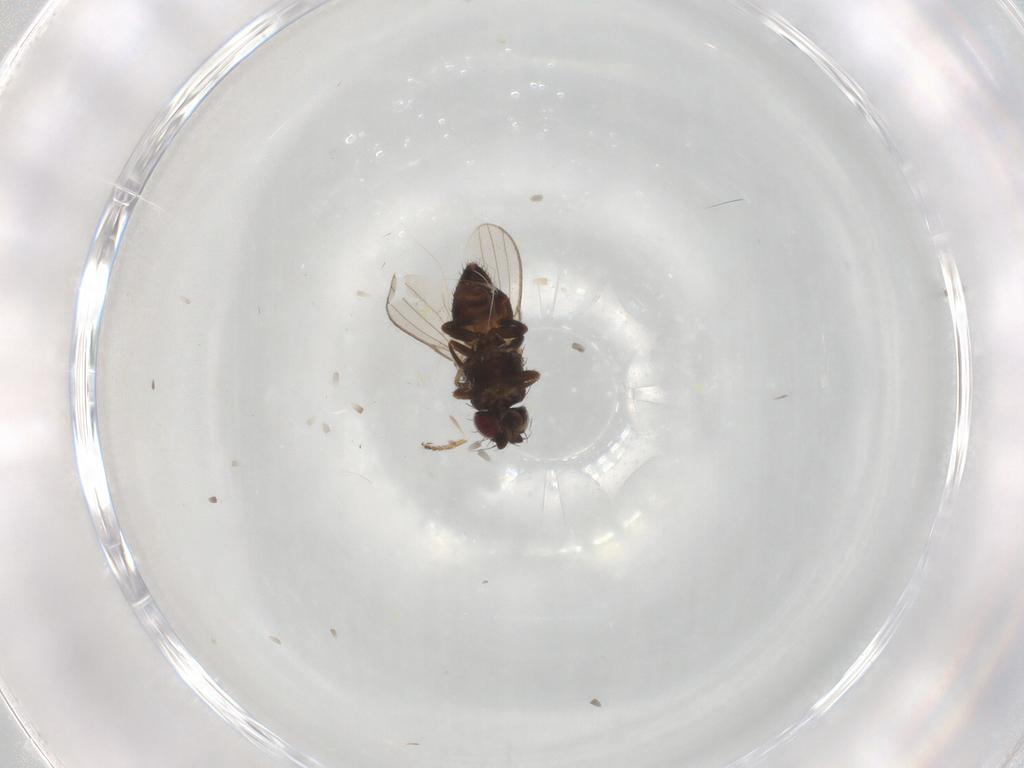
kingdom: Animalia
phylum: Arthropoda
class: Insecta
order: Diptera
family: Milichiidae
